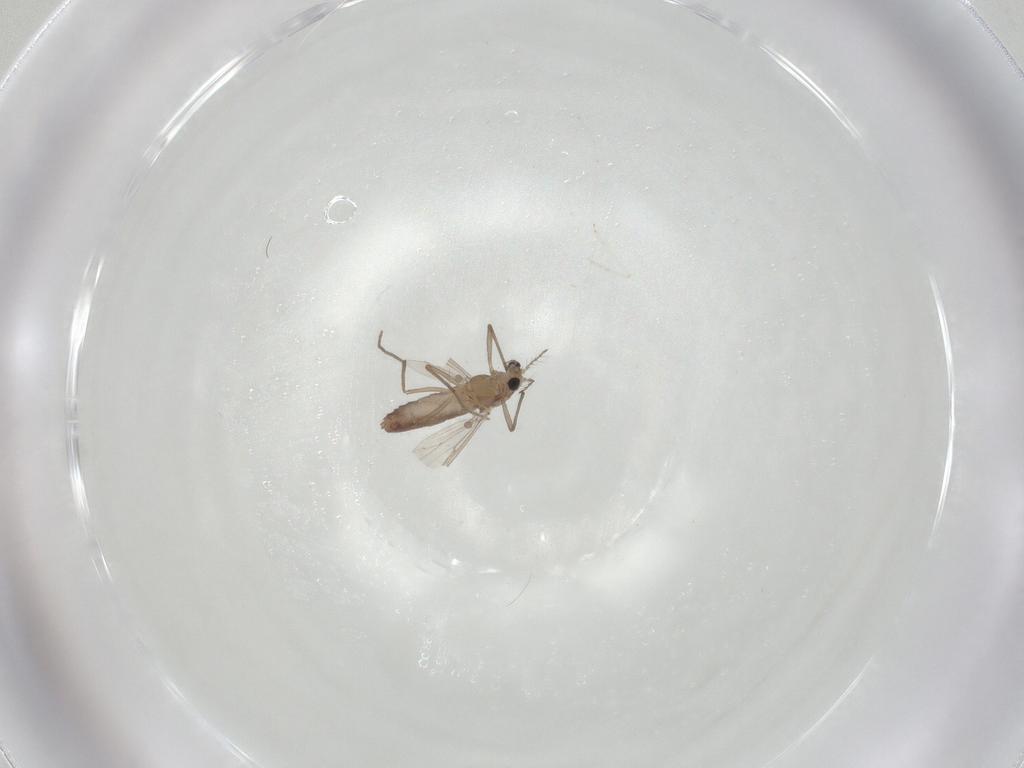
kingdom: Animalia
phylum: Arthropoda
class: Insecta
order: Diptera
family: Chironomidae
